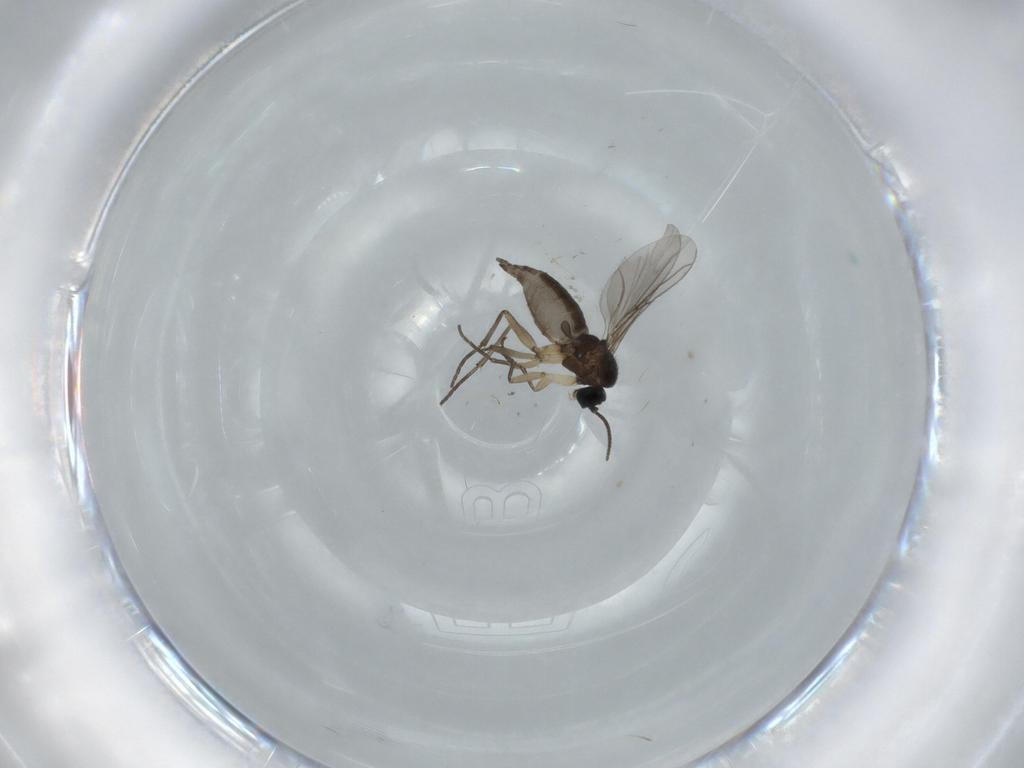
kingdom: Animalia
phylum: Arthropoda
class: Insecta
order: Diptera
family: Sciaridae
